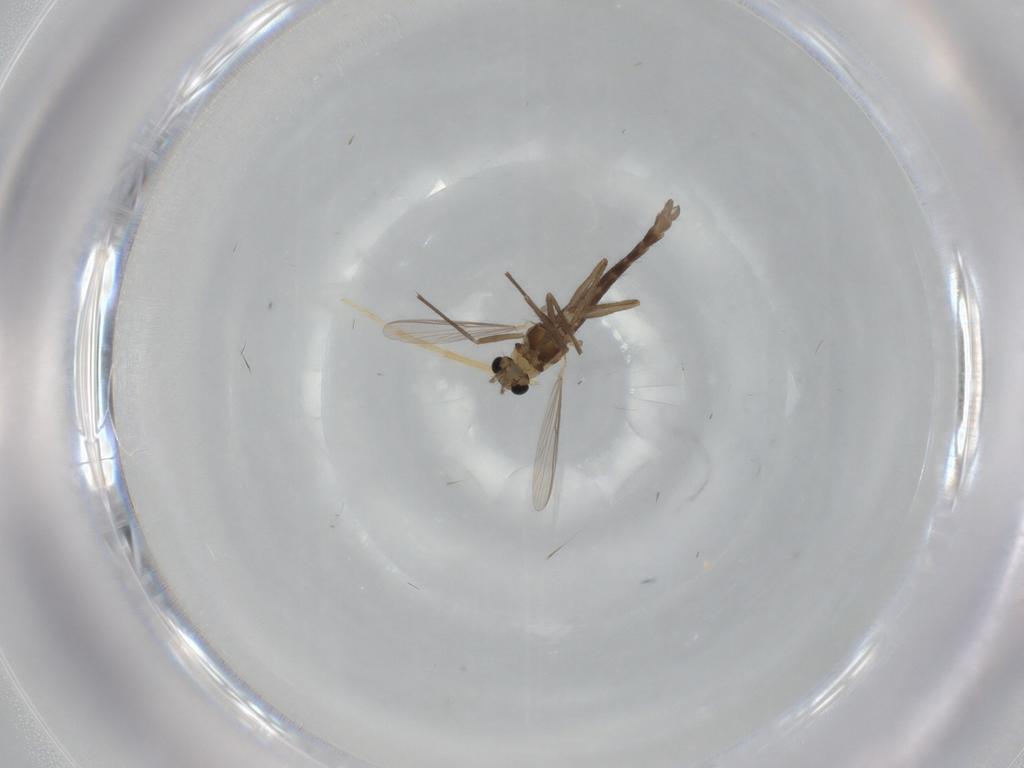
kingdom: Animalia
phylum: Arthropoda
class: Insecta
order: Diptera
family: Chironomidae
